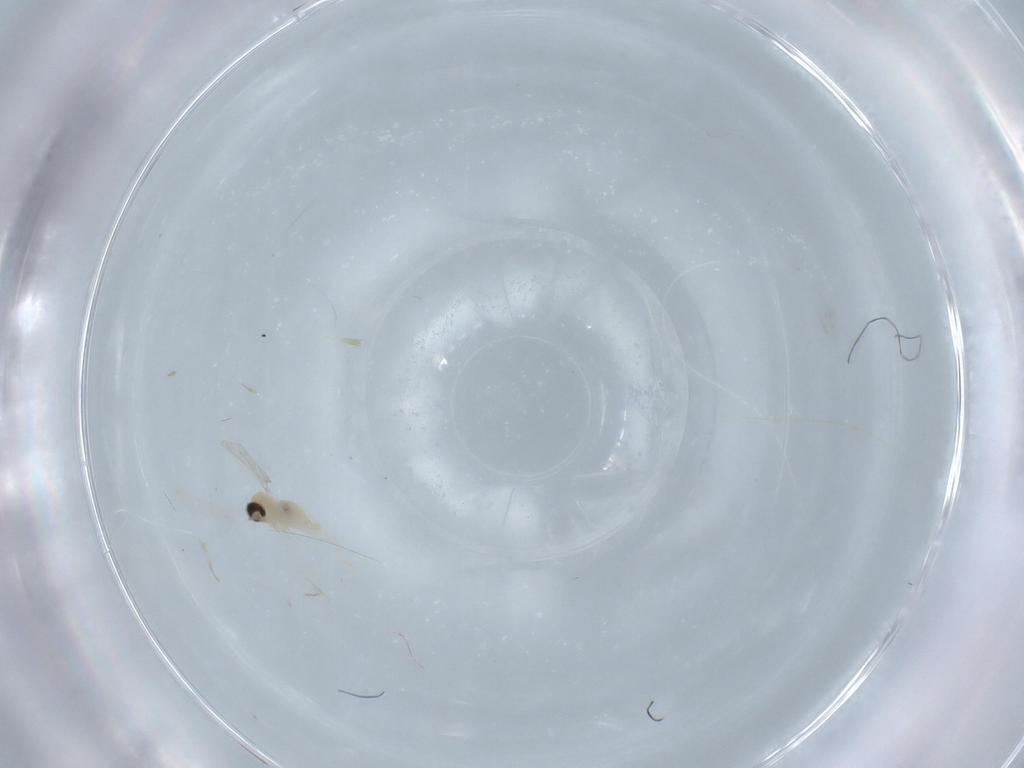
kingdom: Animalia
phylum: Arthropoda
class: Insecta
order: Diptera
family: Cecidomyiidae
